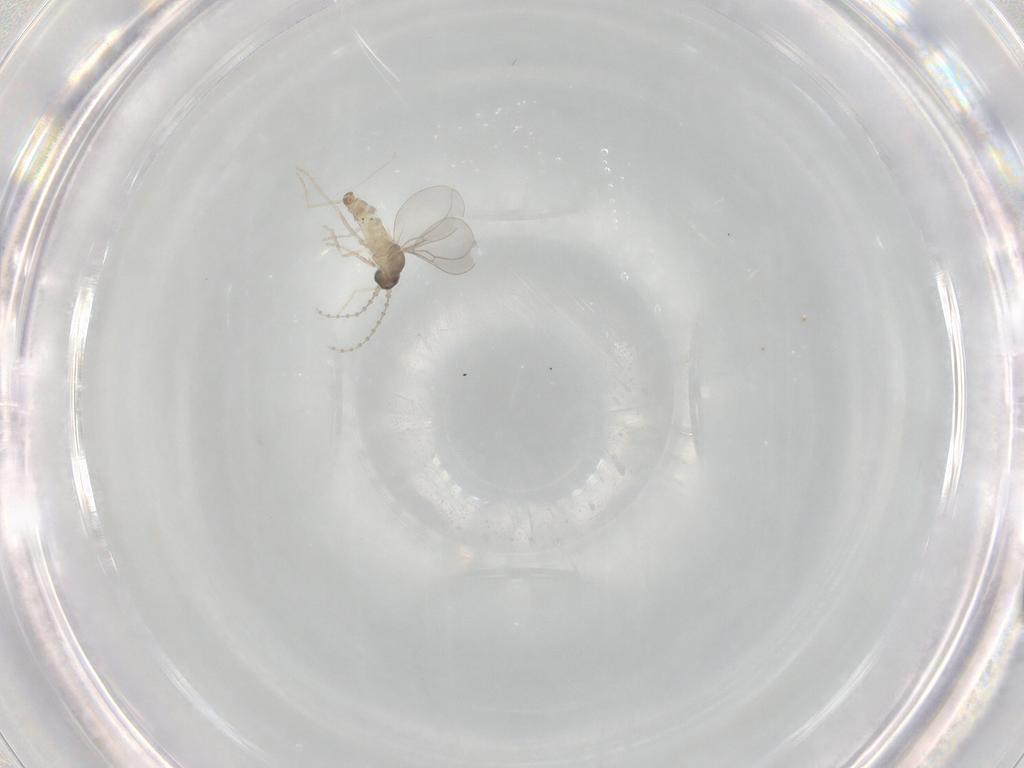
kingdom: Animalia
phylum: Arthropoda
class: Insecta
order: Diptera
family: Cecidomyiidae
